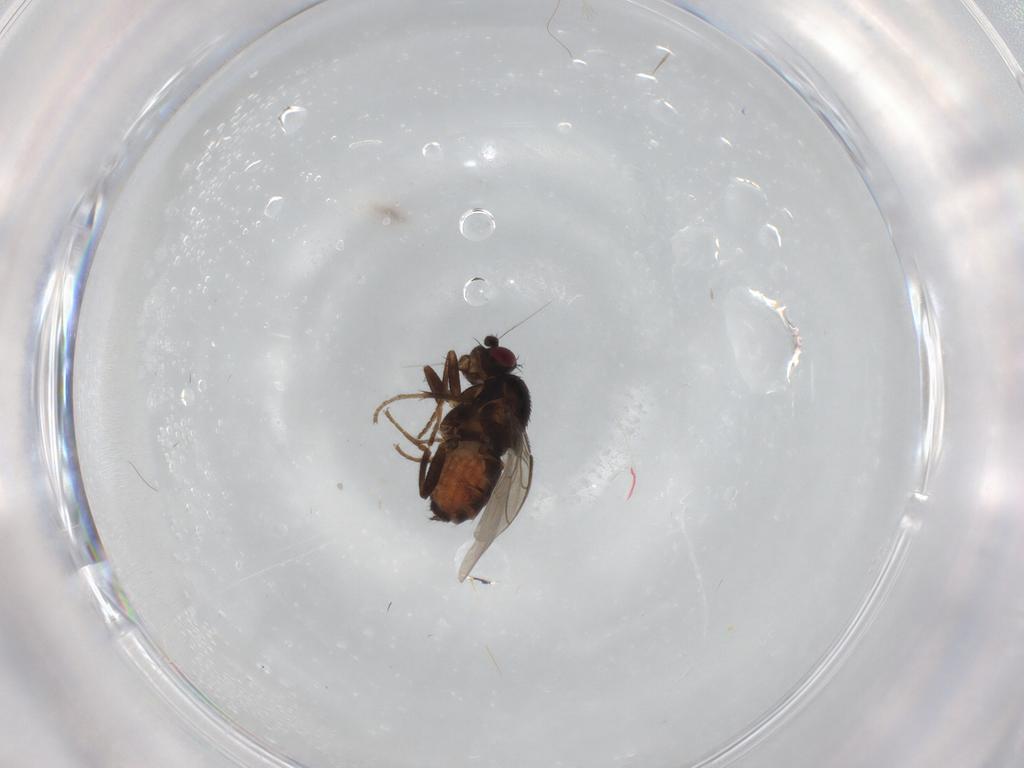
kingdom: Animalia
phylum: Arthropoda
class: Insecta
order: Diptera
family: Sphaeroceridae
